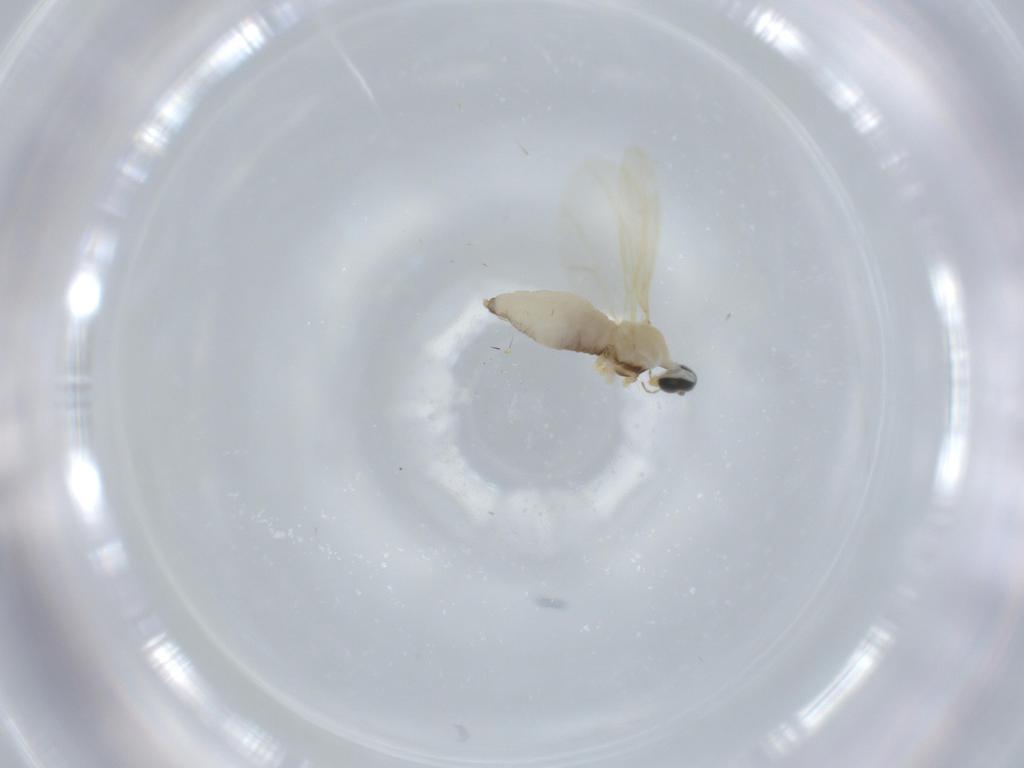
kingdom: Animalia
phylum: Arthropoda
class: Insecta
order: Diptera
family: Cecidomyiidae
